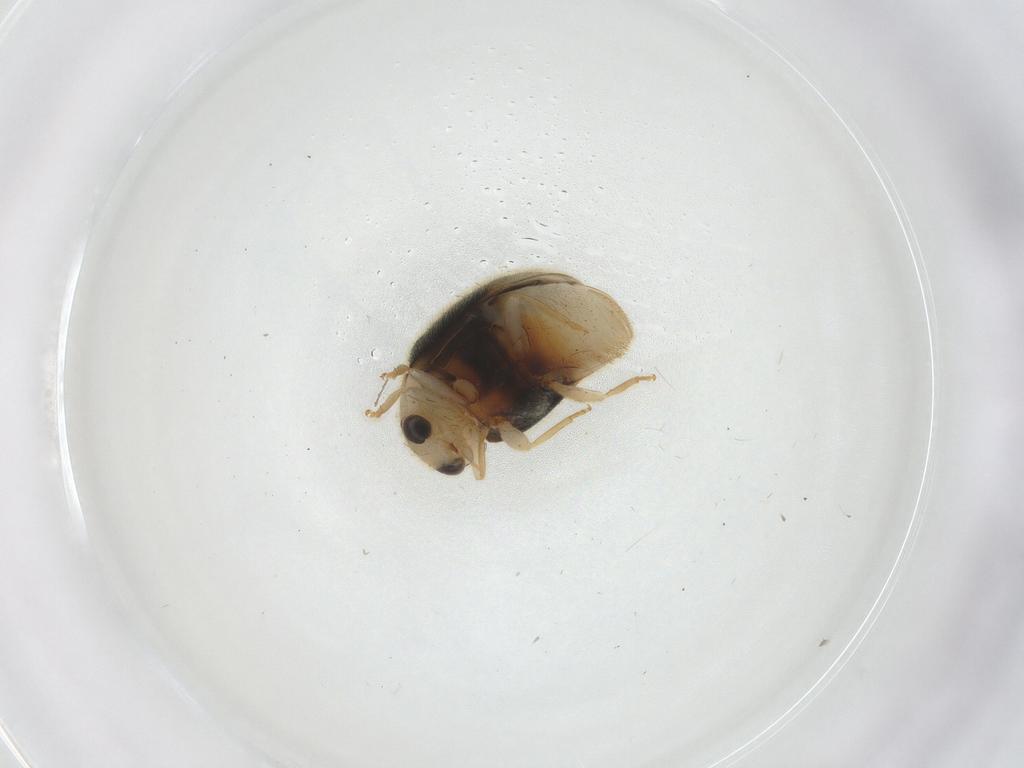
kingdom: Animalia
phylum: Arthropoda
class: Insecta
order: Coleoptera
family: Coccinellidae
